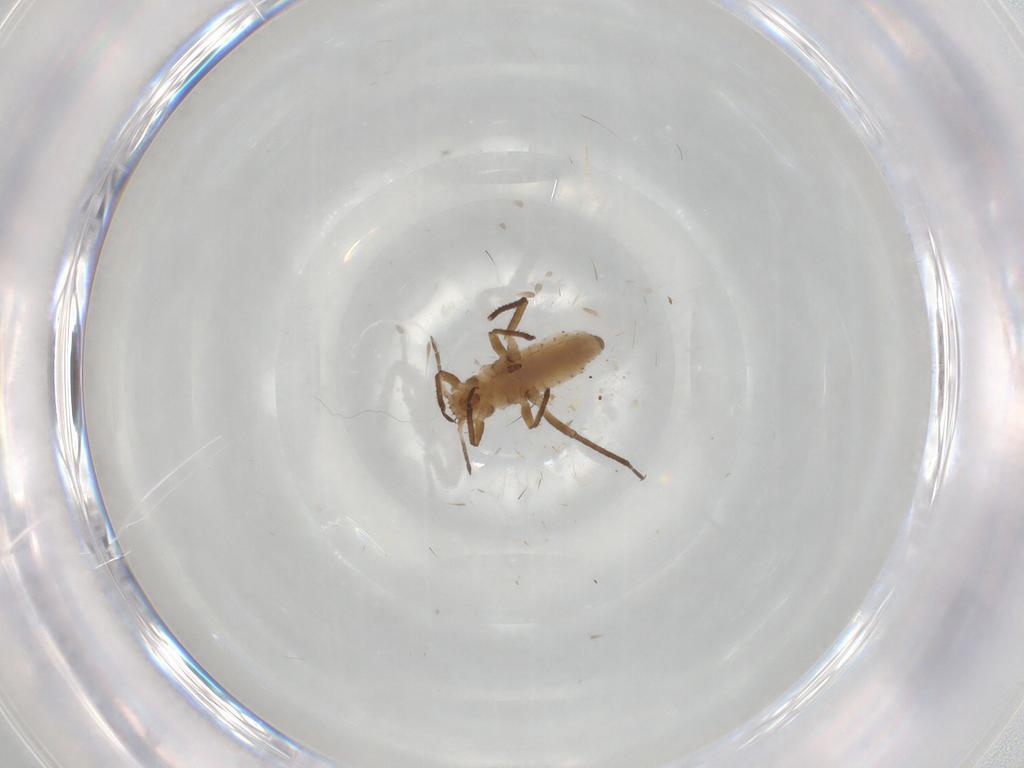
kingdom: Animalia
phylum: Arthropoda
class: Insecta
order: Hemiptera
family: Aphididae
